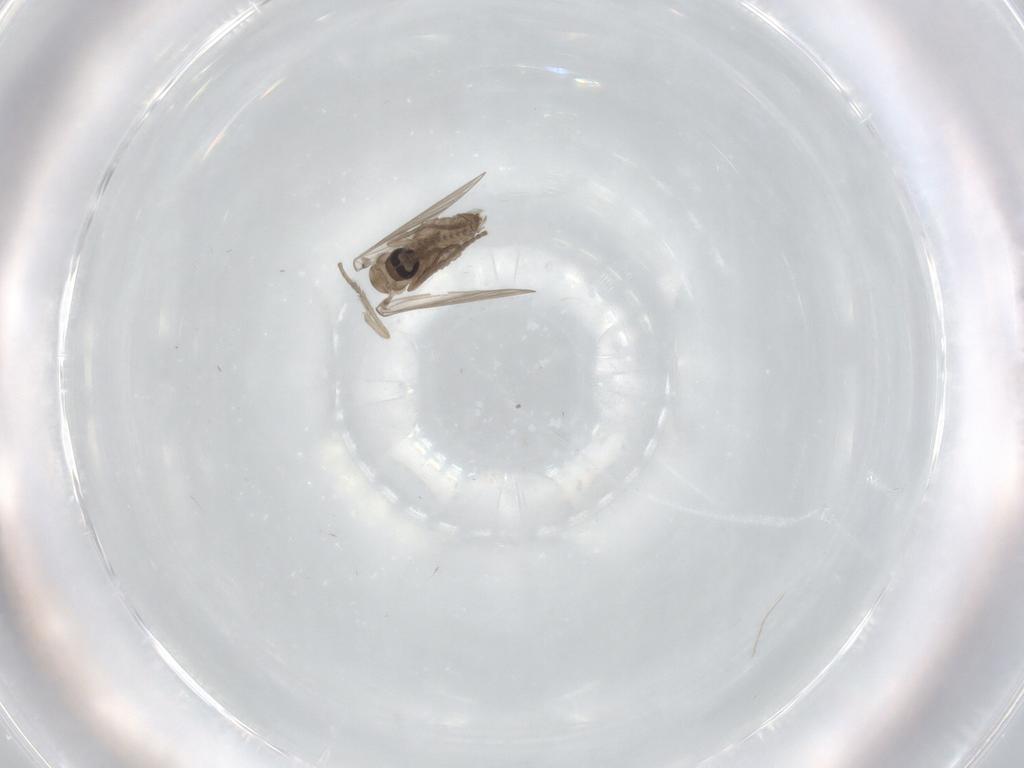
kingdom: Animalia
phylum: Arthropoda
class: Insecta
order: Diptera
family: Psychodidae
